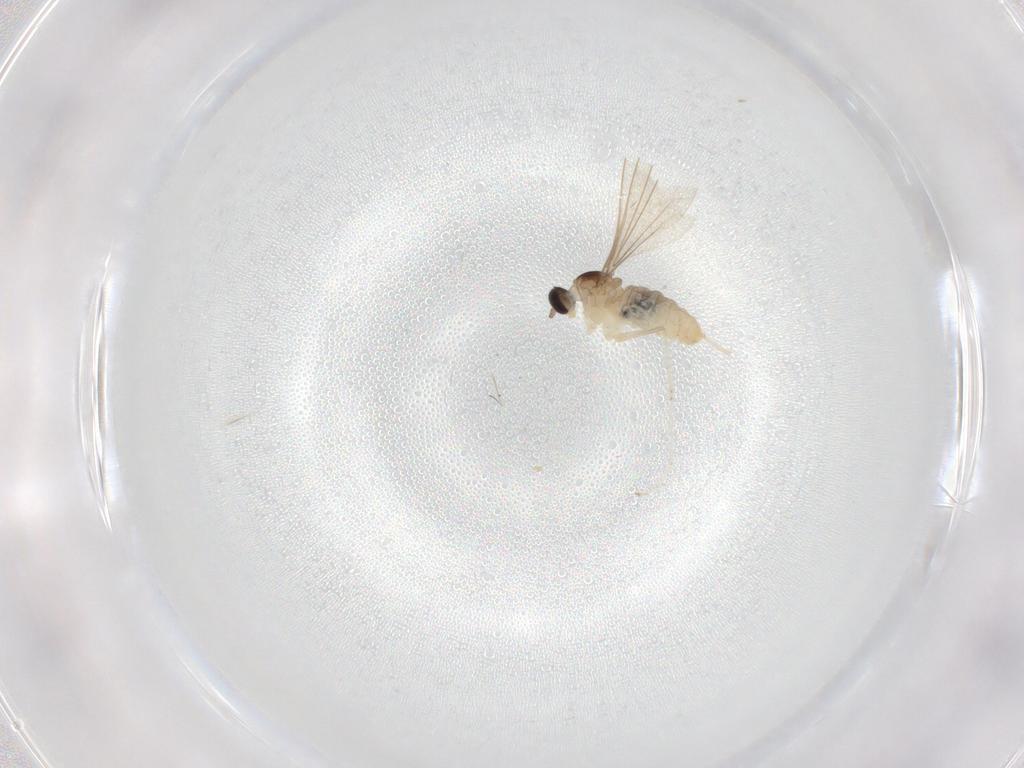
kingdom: Animalia
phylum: Arthropoda
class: Insecta
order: Diptera
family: Cecidomyiidae
